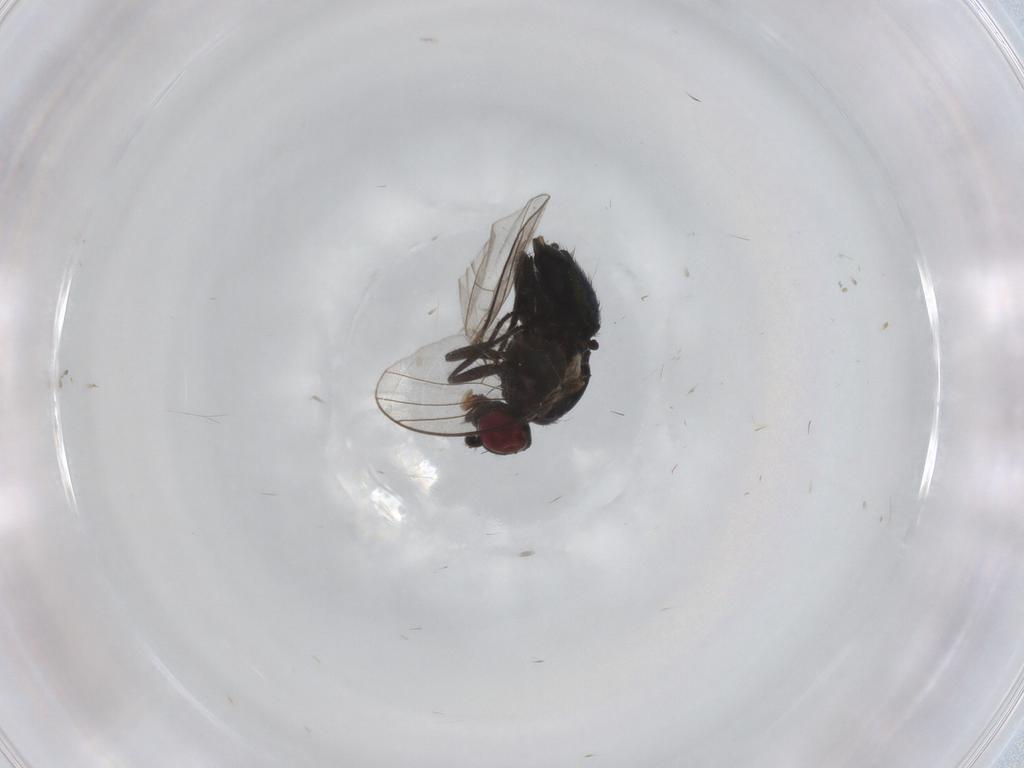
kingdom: Animalia
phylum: Arthropoda
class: Insecta
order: Diptera
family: Agromyzidae
